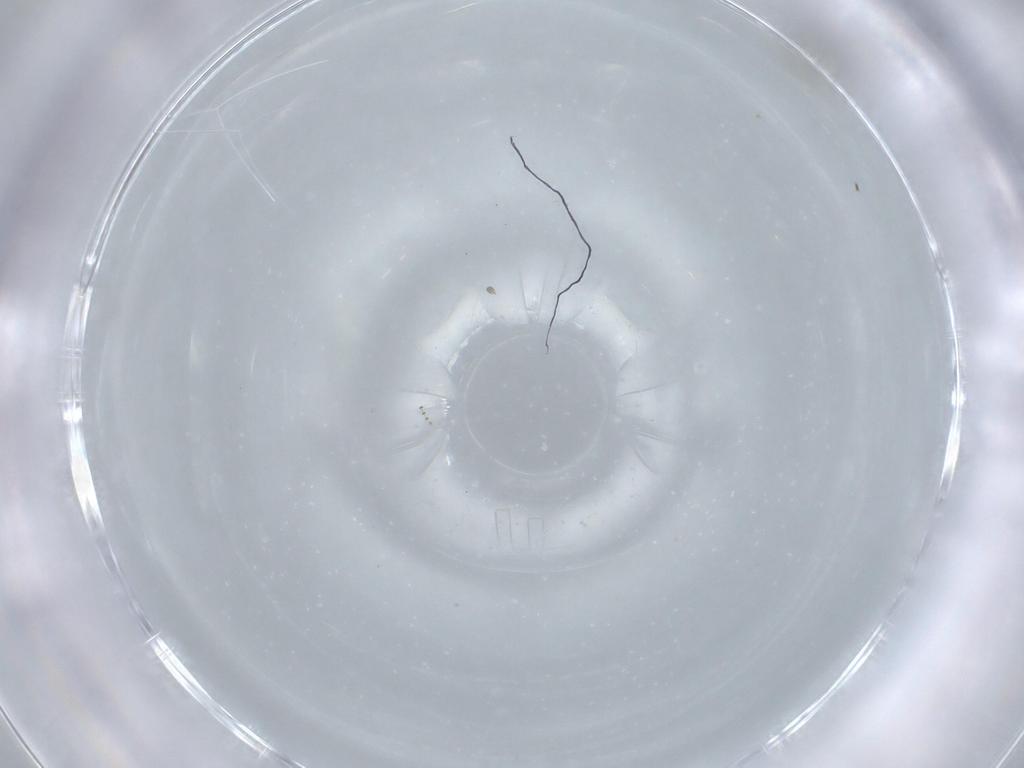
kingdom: Animalia
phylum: Arthropoda
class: Insecta
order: Diptera
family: Cecidomyiidae
